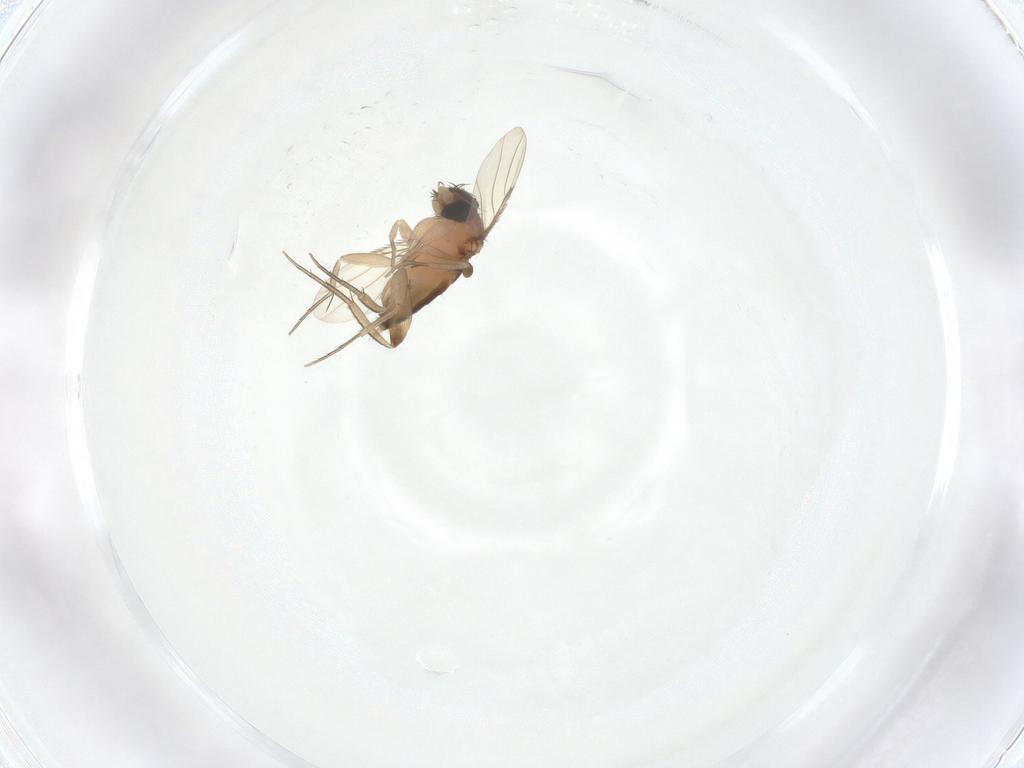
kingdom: Animalia
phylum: Arthropoda
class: Insecta
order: Diptera
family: Phoridae
